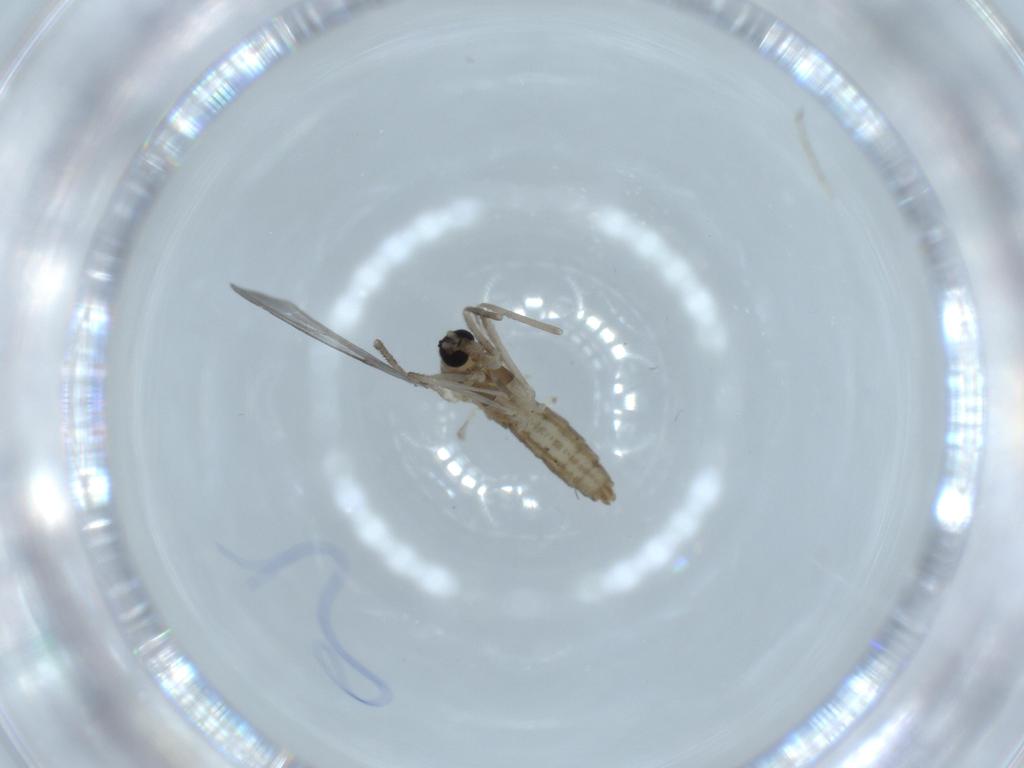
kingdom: Animalia
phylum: Arthropoda
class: Insecta
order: Diptera
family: Cecidomyiidae
